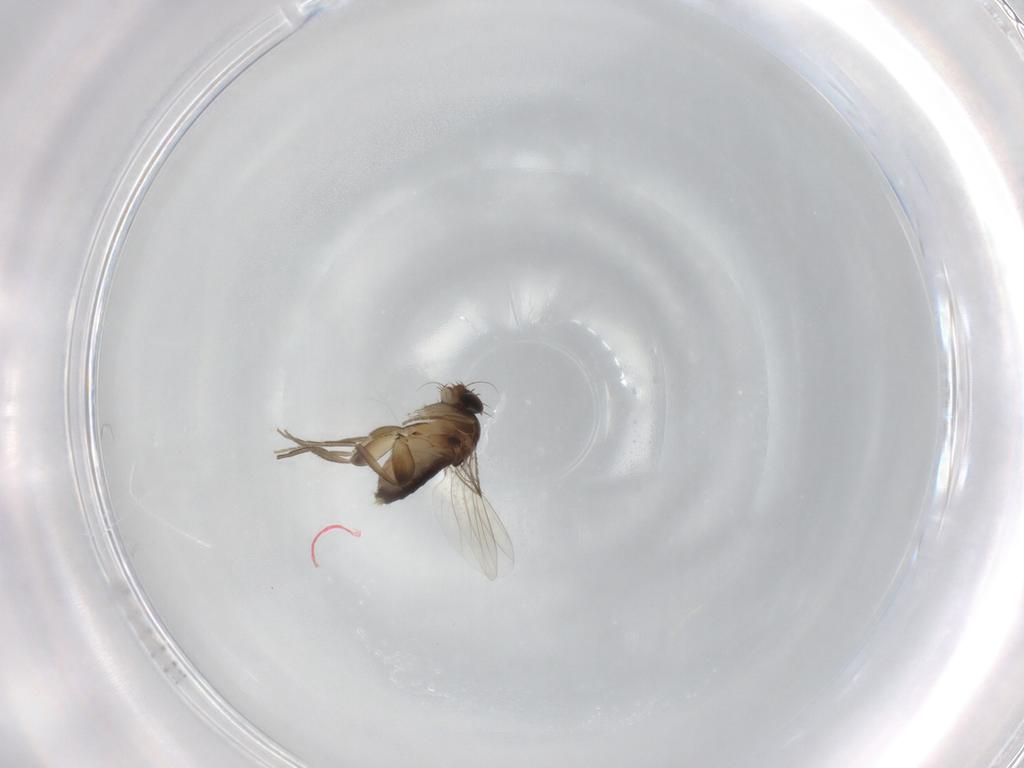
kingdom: Animalia
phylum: Arthropoda
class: Insecta
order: Diptera
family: Phoridae
